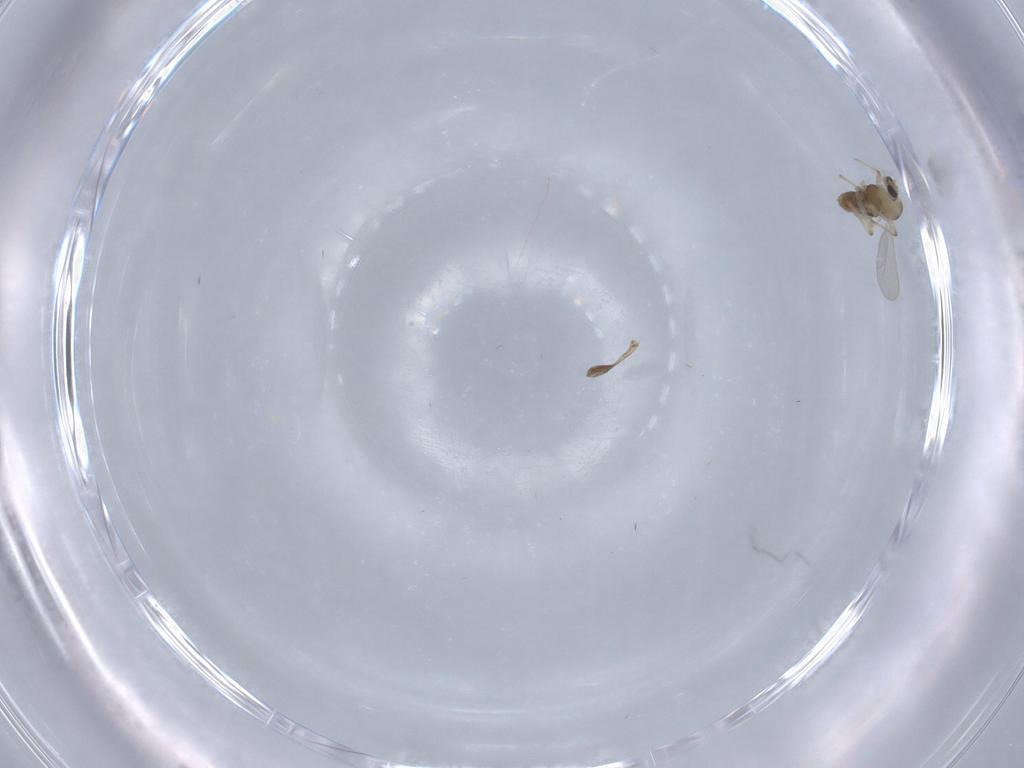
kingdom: Animalia
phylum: Arthropoda
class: Insecta
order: Diptera
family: Chironomidae
